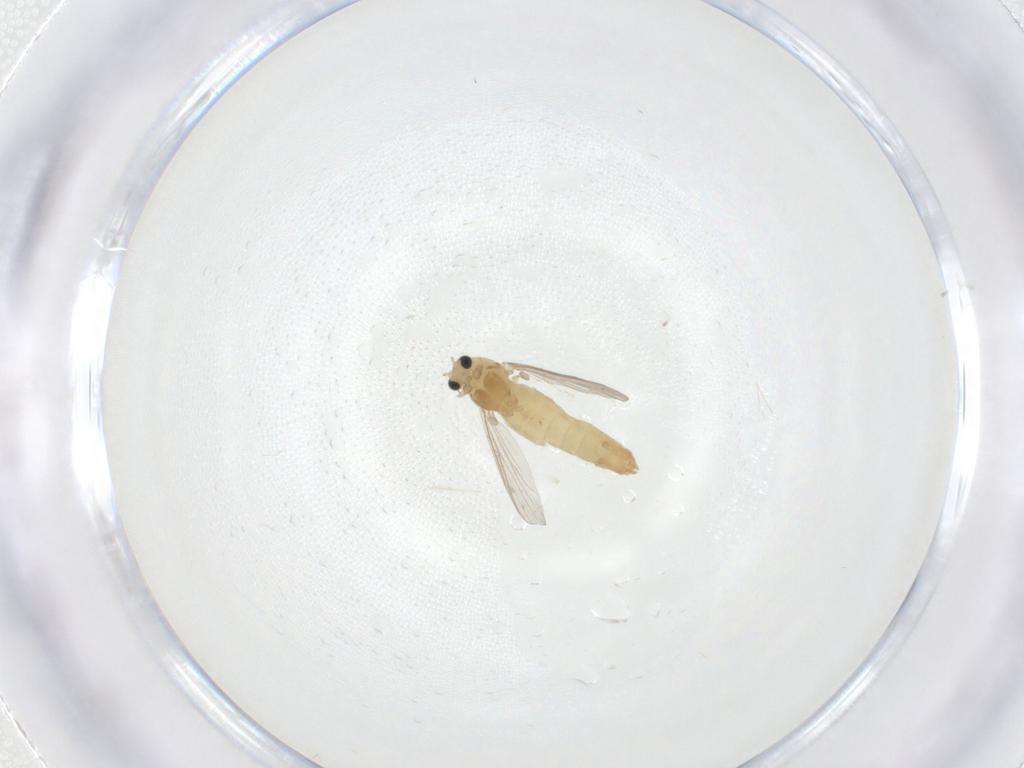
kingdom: Animalia
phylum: Arthropoda
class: Insecta
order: Diptera
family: Chironomidae
